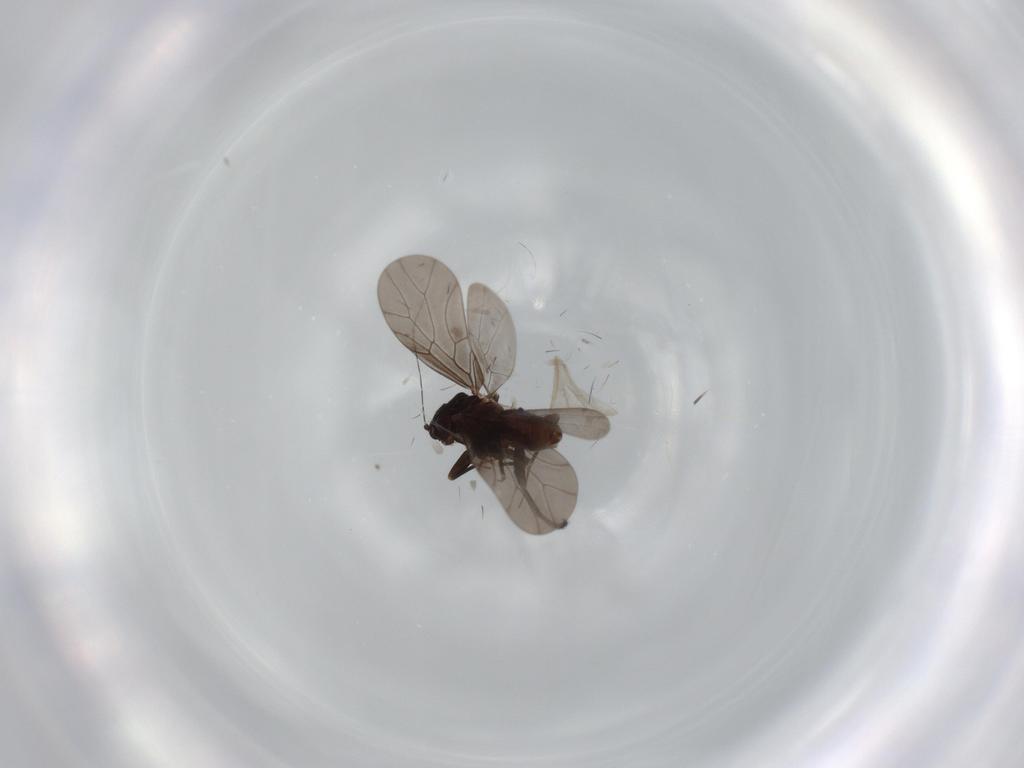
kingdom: Animalia
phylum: Arthropoda
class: Insecta
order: Psocodea
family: Lepidopsocidae
